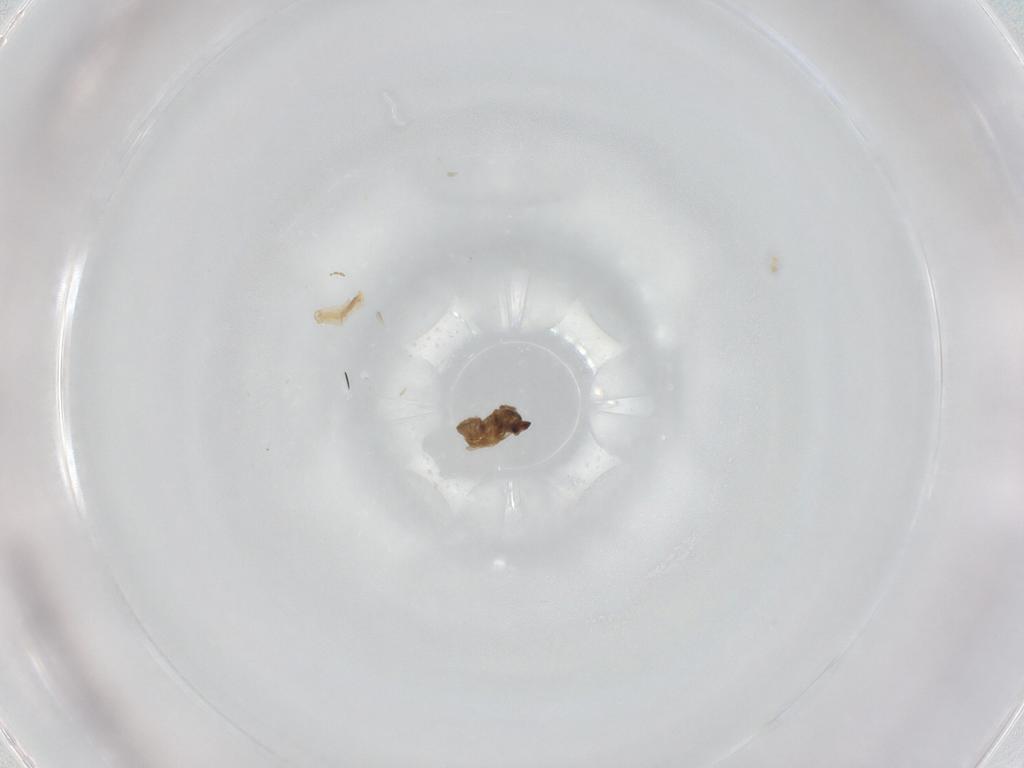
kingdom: Animalia
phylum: Arthropoda
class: Insecta
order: Diptera
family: Cecidomyiidae
